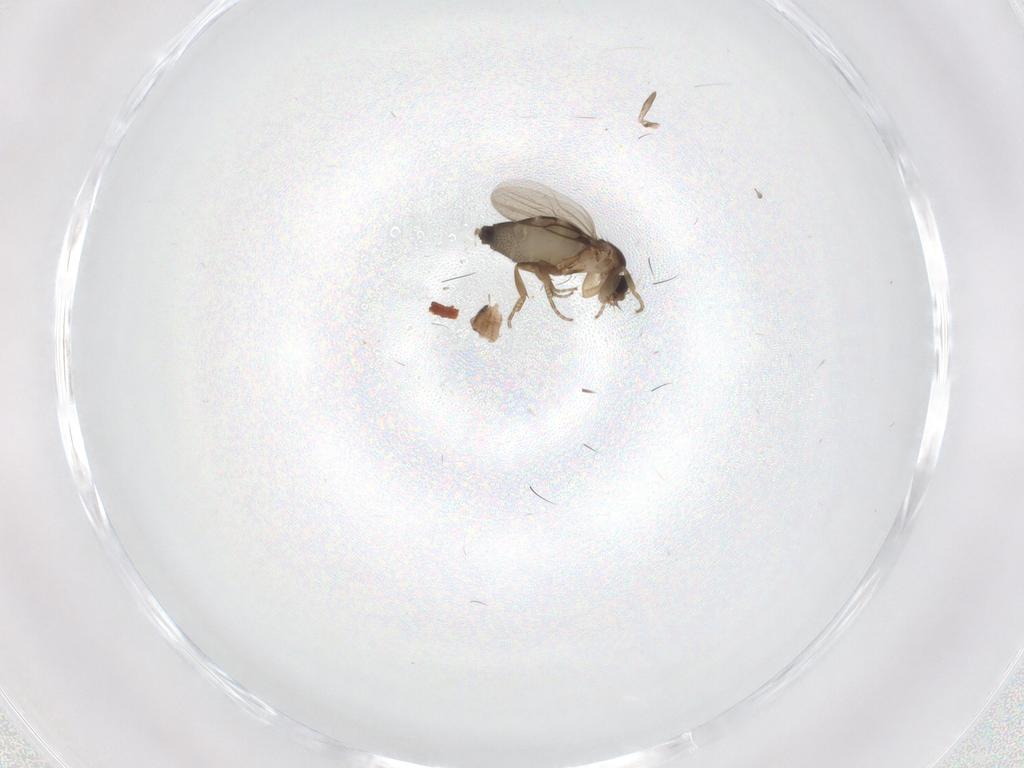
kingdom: Animalia
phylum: Arthropoda
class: Insecta
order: Diptera
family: Phoridae
